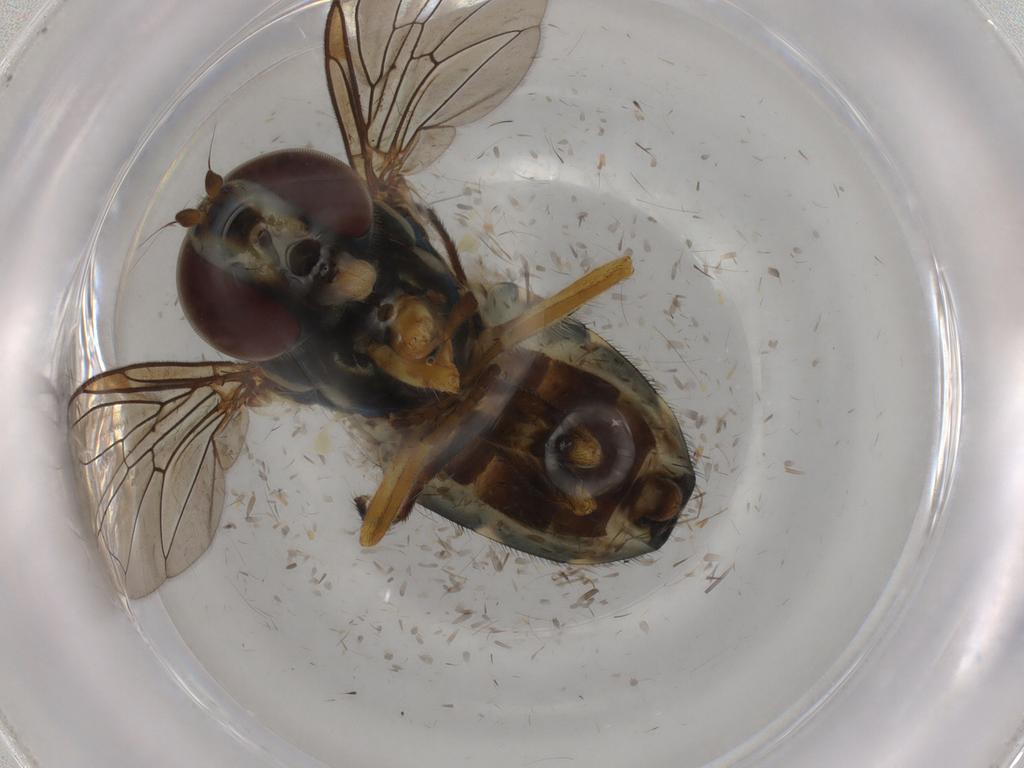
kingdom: Animalia
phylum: Arthropoda
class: Insecta
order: Diptera
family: Syrphidae
